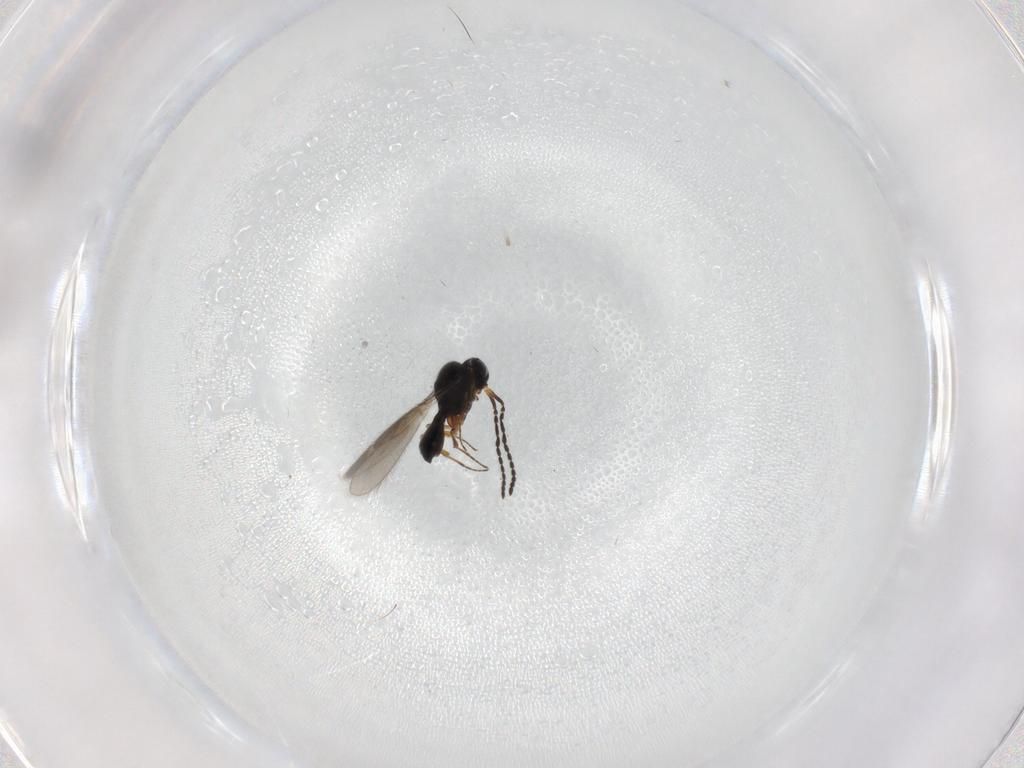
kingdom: Animalia
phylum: Arthropoda
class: Insecta
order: Hymenoptera
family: Scelionidae
